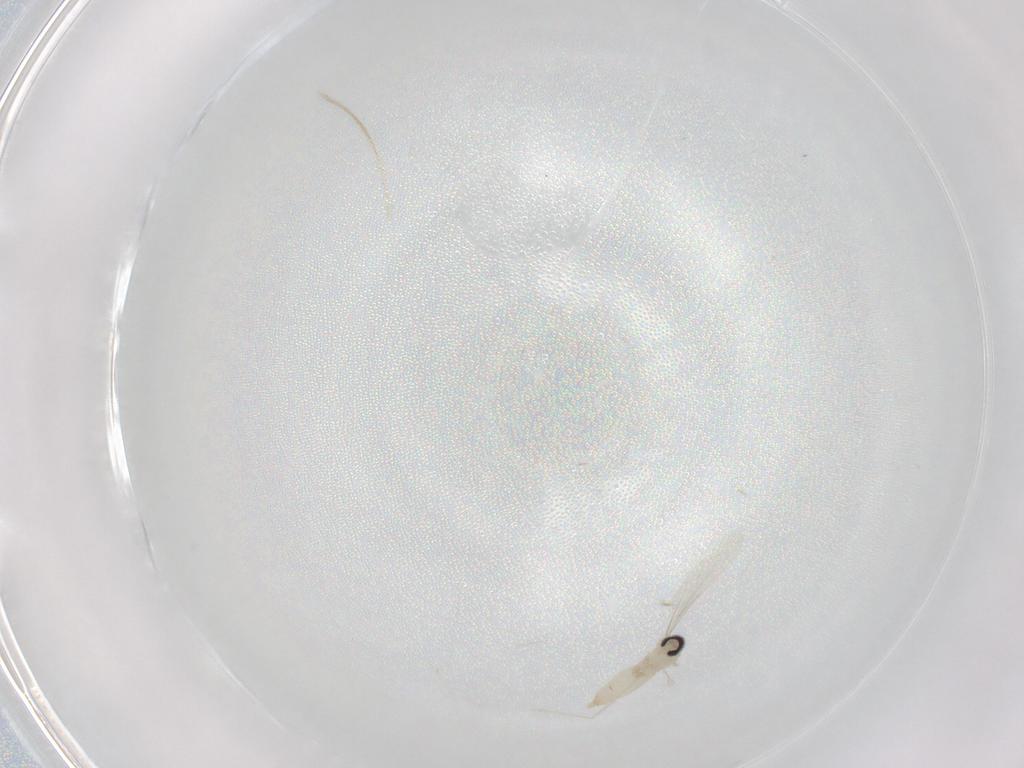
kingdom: Animalia
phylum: Arthropoda
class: Insecta
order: Diptera
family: Cecidomyiidae
